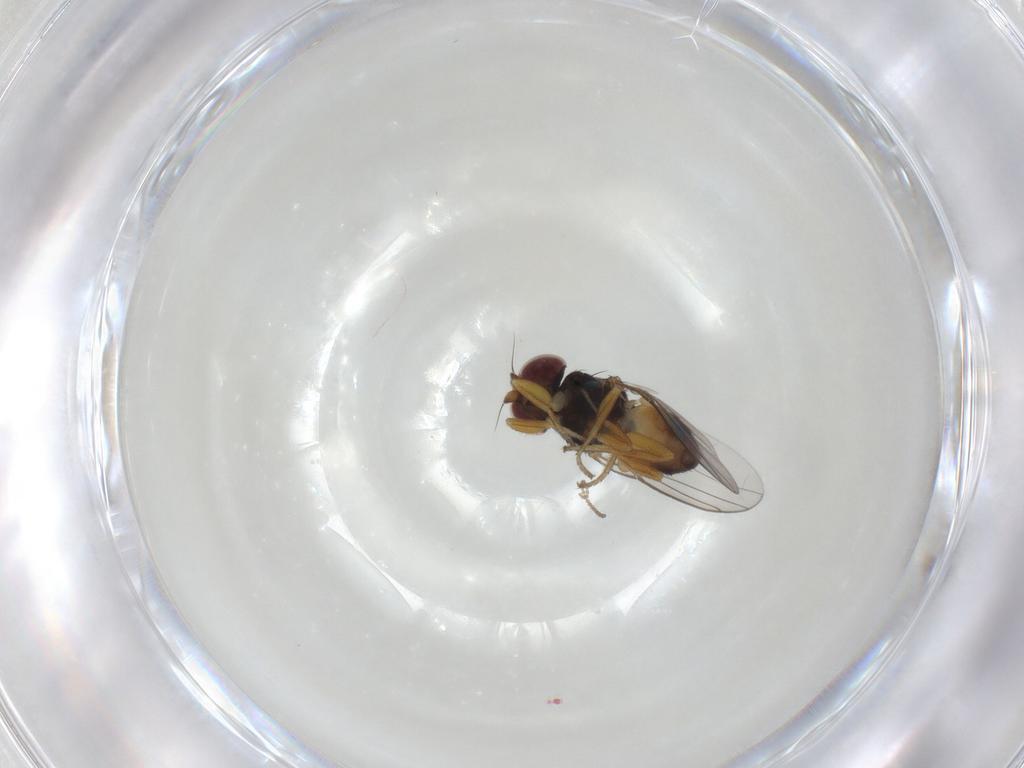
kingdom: Animalia
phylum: Arthropoda
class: Insecta
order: Diptera
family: Chloropidae
